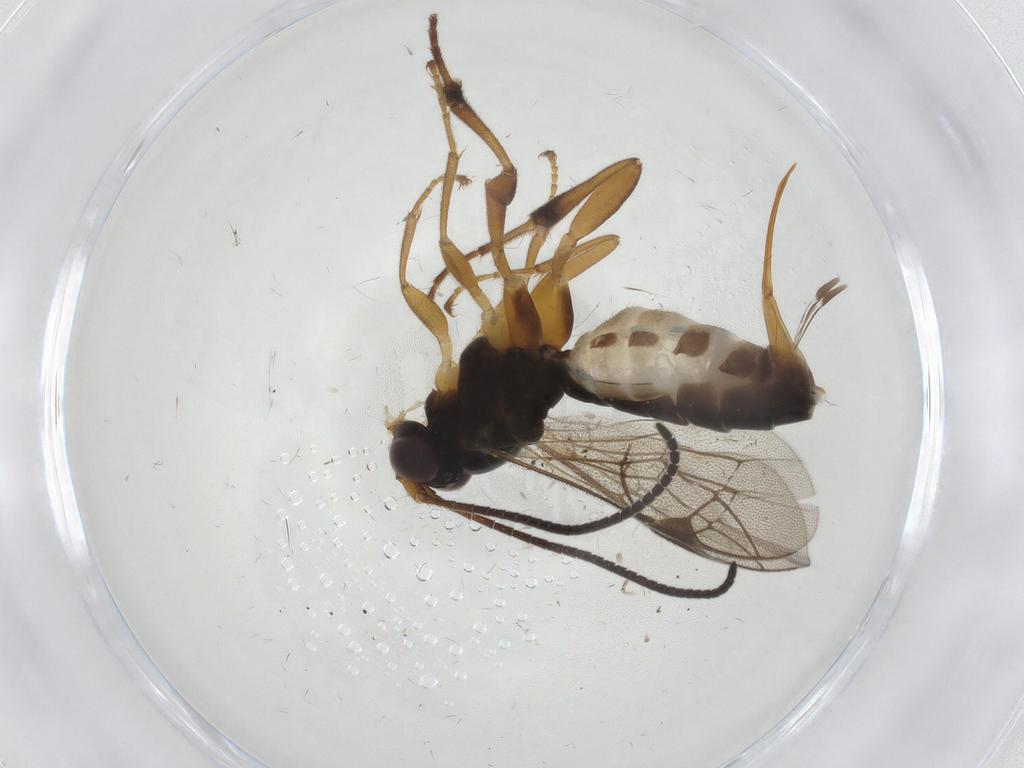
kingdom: Animalia
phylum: Arthropoda
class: Insecta
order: Hymenoptera
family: Ichneumonidae
